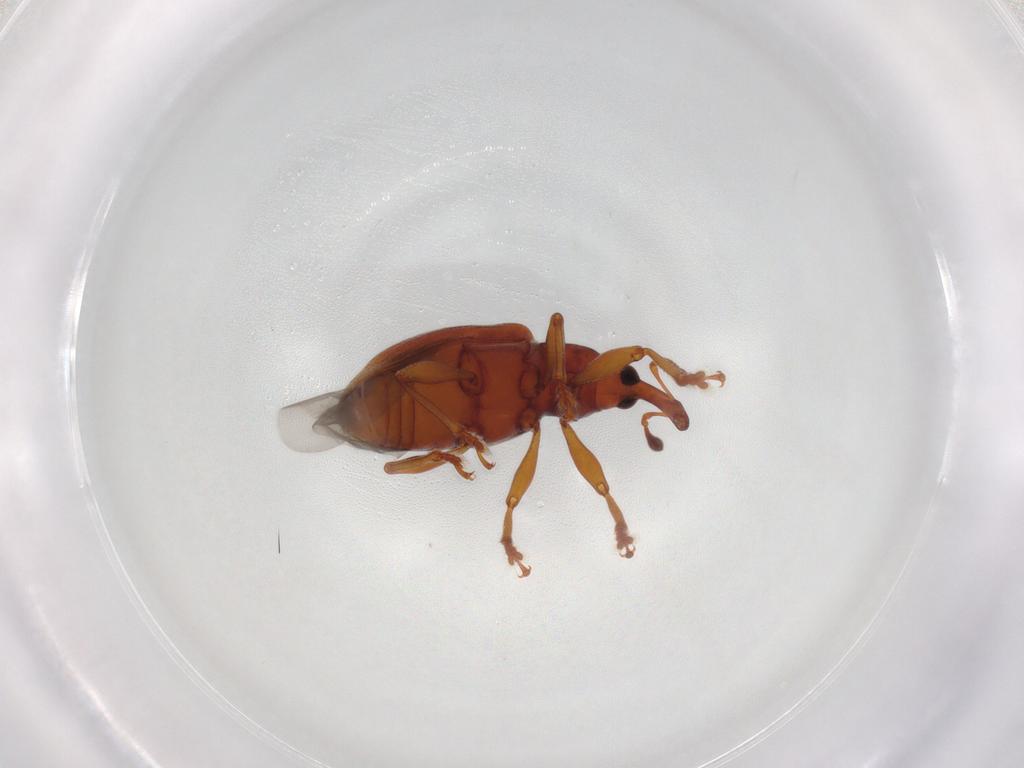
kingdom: Animalia
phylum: Arthropoda
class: Insecta
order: Coleoptera
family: Curculionidae
